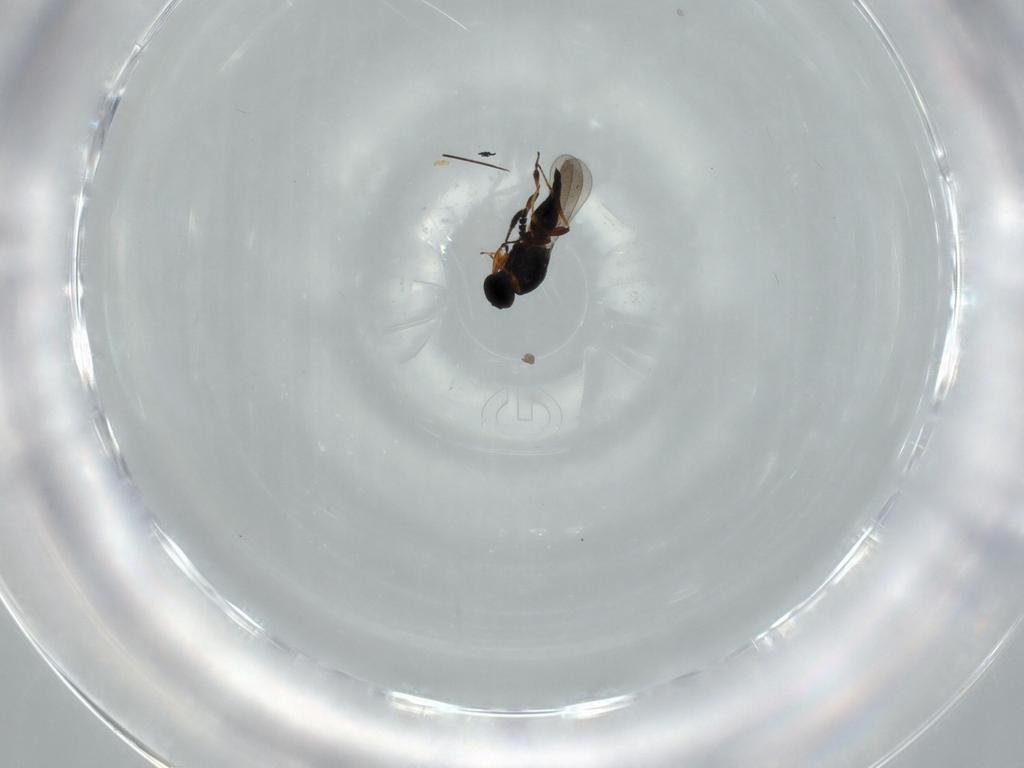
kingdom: Animalia
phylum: Arthropoda
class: Insecta
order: Hymenoptera
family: Platygastridae
